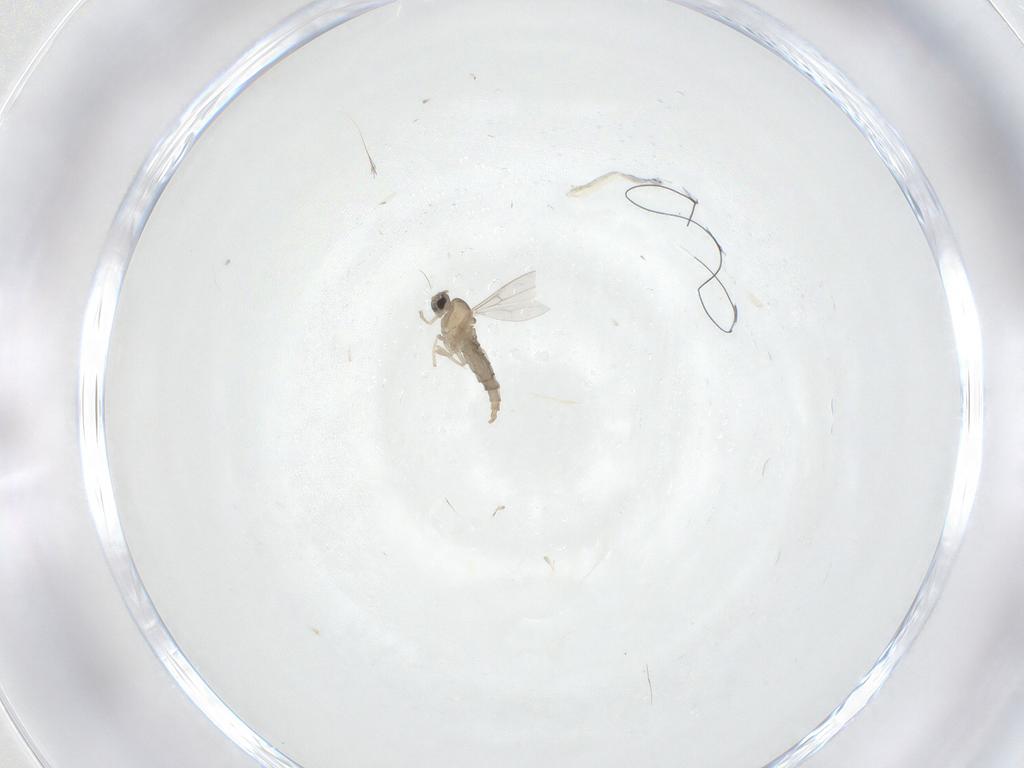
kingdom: Animalia
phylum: Arthropoda
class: Insecta
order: Diptera
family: Cecidomyiidae
